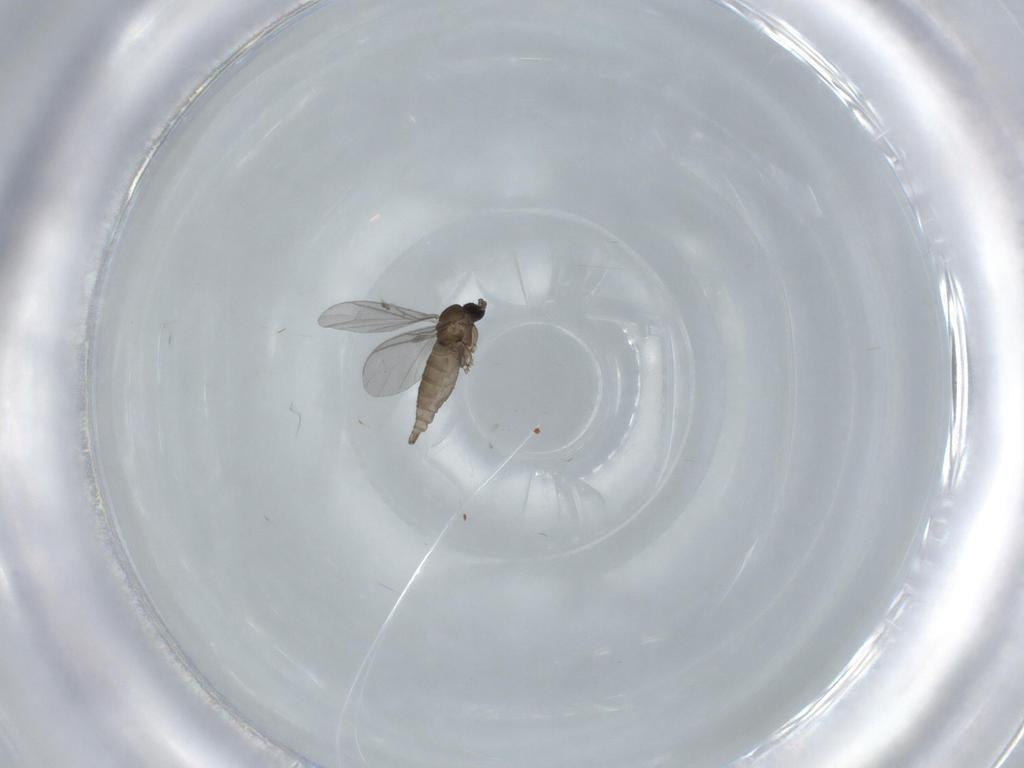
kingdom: Animalia
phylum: Arthropoda
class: Insecta
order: Diptera
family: Sciaridae
